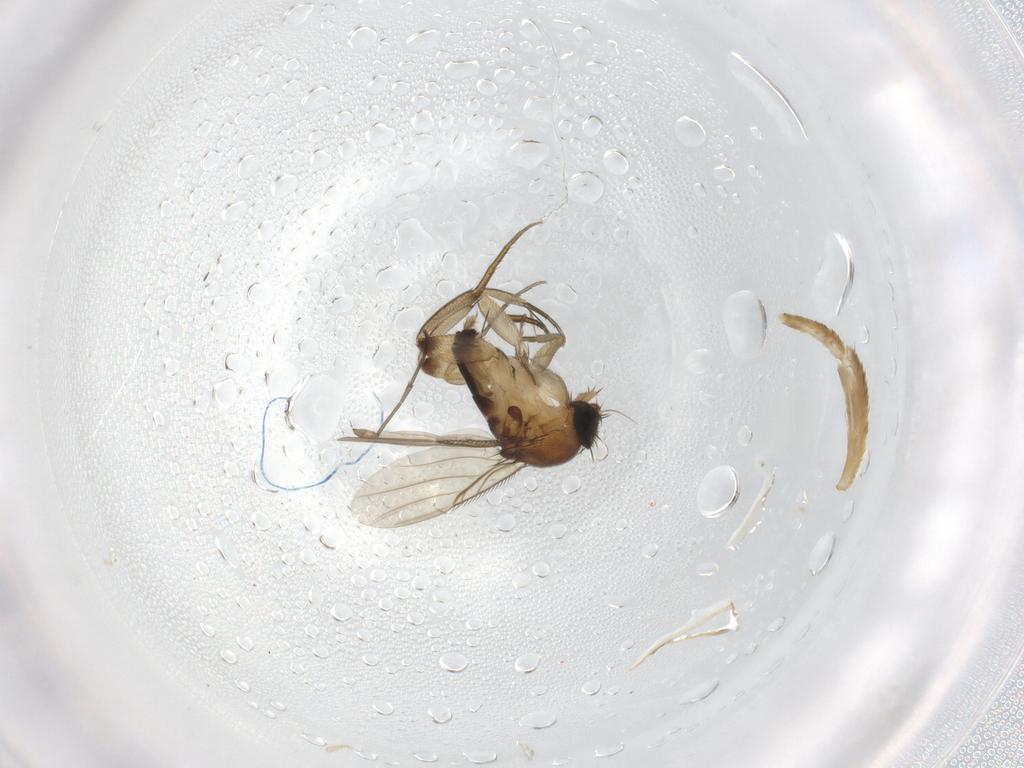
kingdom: Animalia
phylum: Arthropoda
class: Insecta
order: Diptera
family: Phoridae
